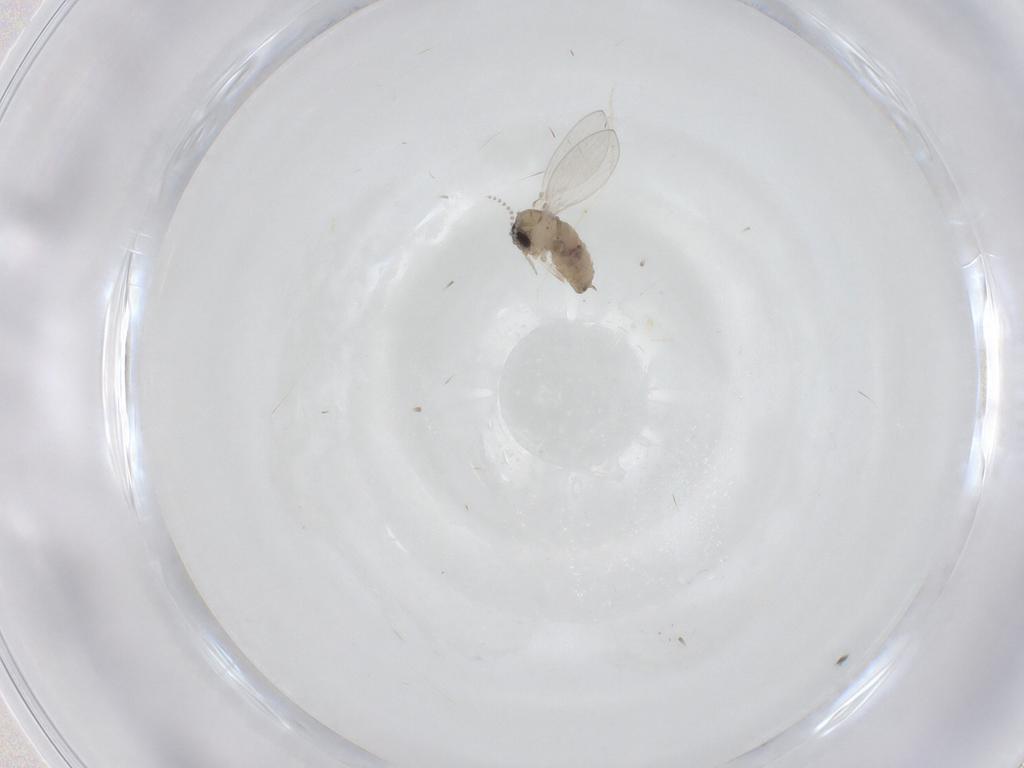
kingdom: Animalia
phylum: Arthropoda
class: Insecta
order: Diptera
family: Psychodidae
